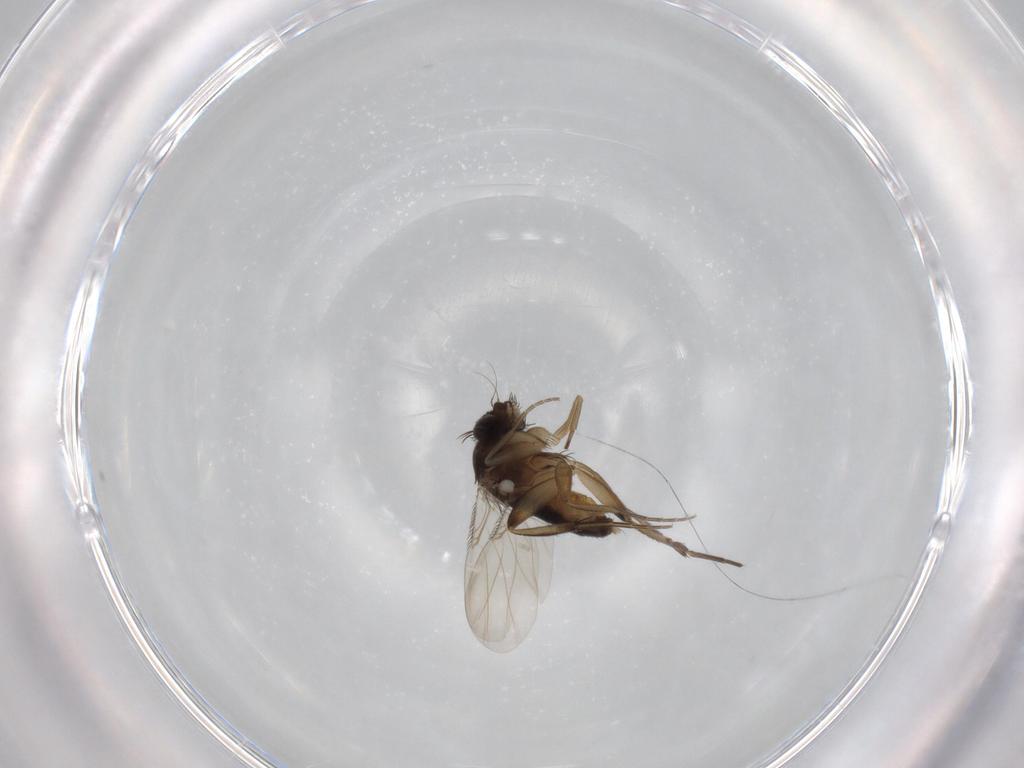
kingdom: Animalia
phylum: Arthropoda
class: Insecta
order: Diptera
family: Phoridae
